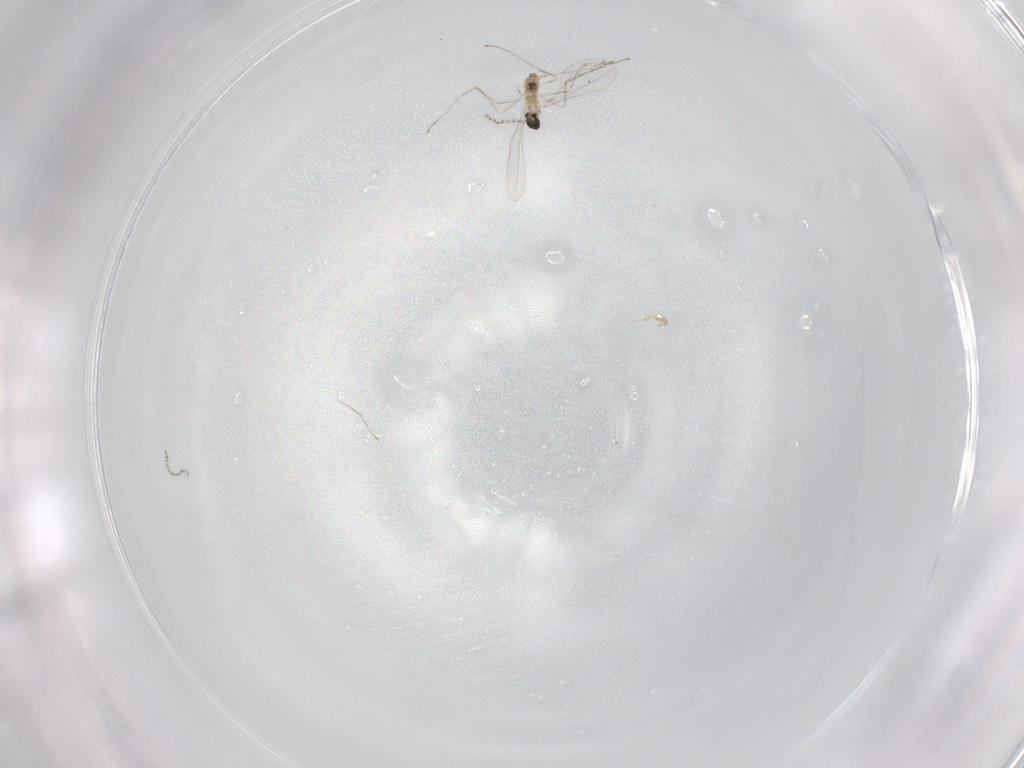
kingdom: Animalia
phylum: Arthropoda
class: Insecta
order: Diptera
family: Cecidomyiidae
